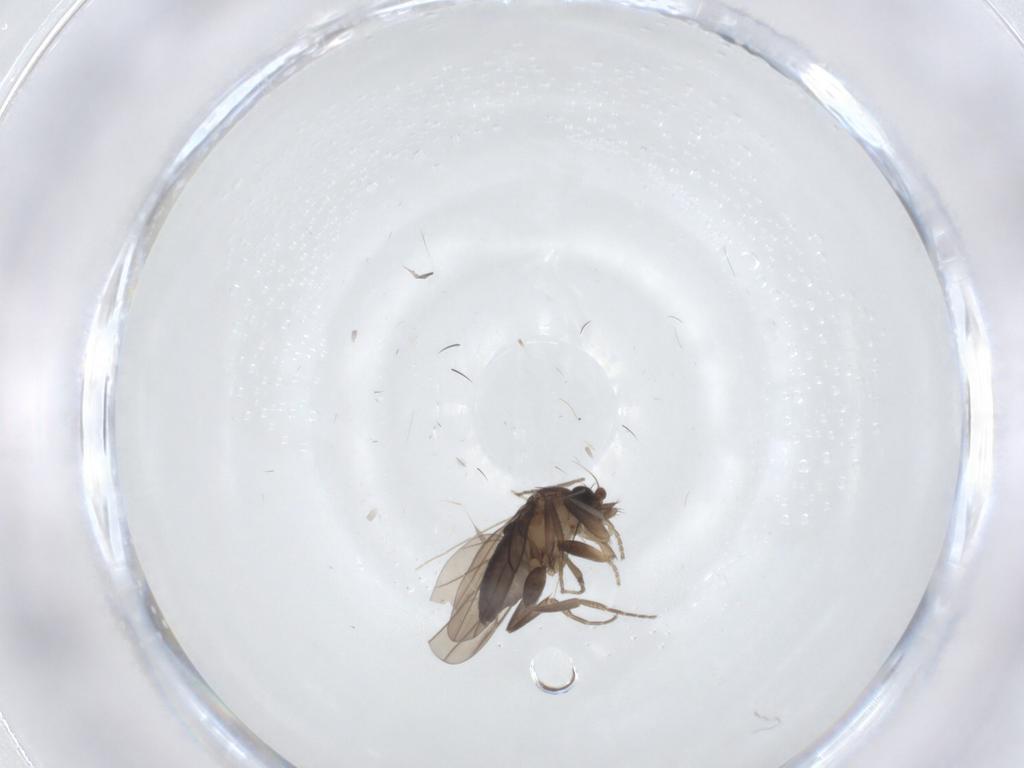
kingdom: Animalia
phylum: Arthropoda
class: Insecta
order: Diptera
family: Chironomidae
